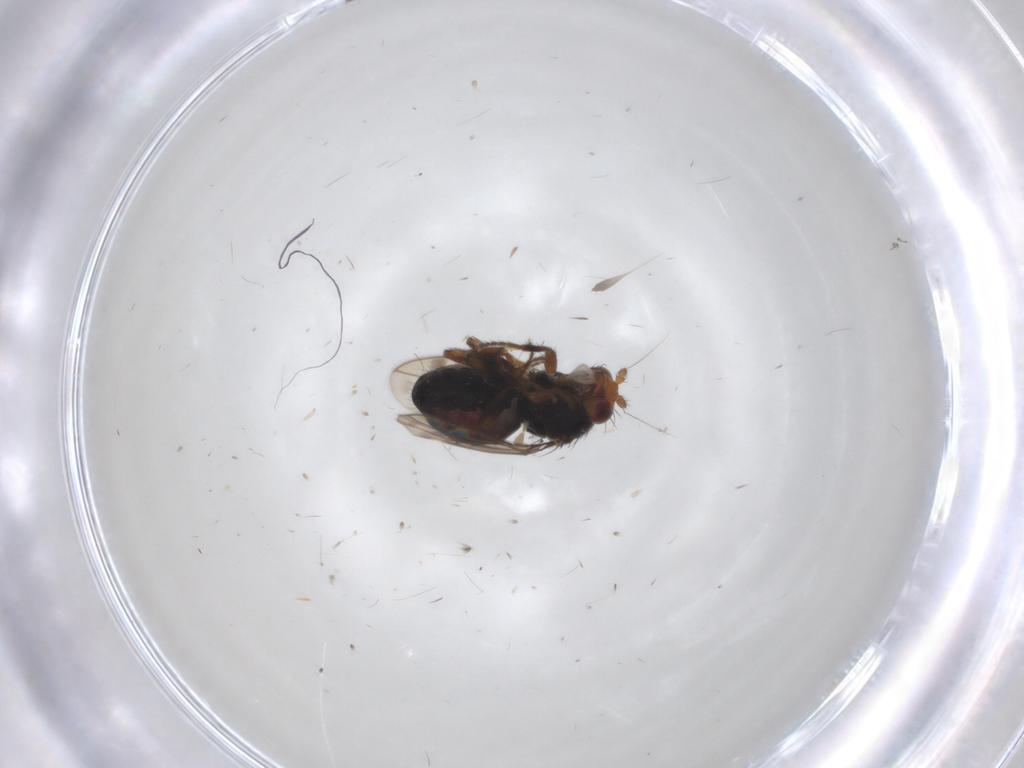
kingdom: Animalia
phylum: Arthropoda
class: Insecta
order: Diptera
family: Sphaeroceridae
